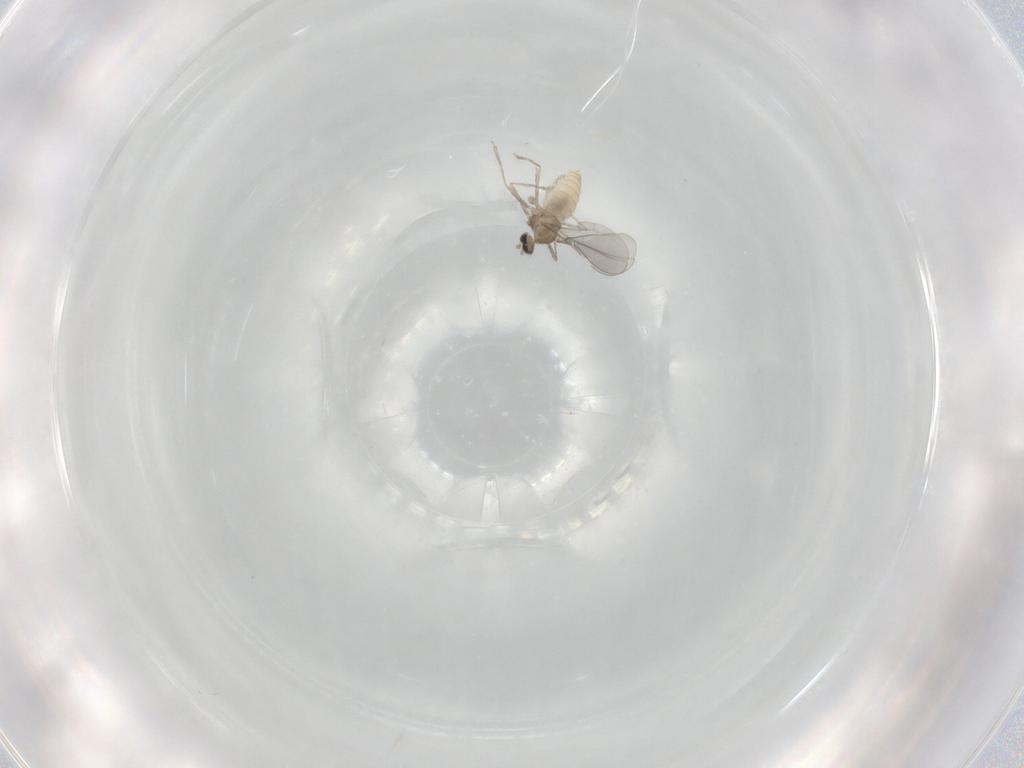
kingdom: Animalia
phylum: Arthropoda
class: Insecta
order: Diptera
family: Cecidomyiidae
